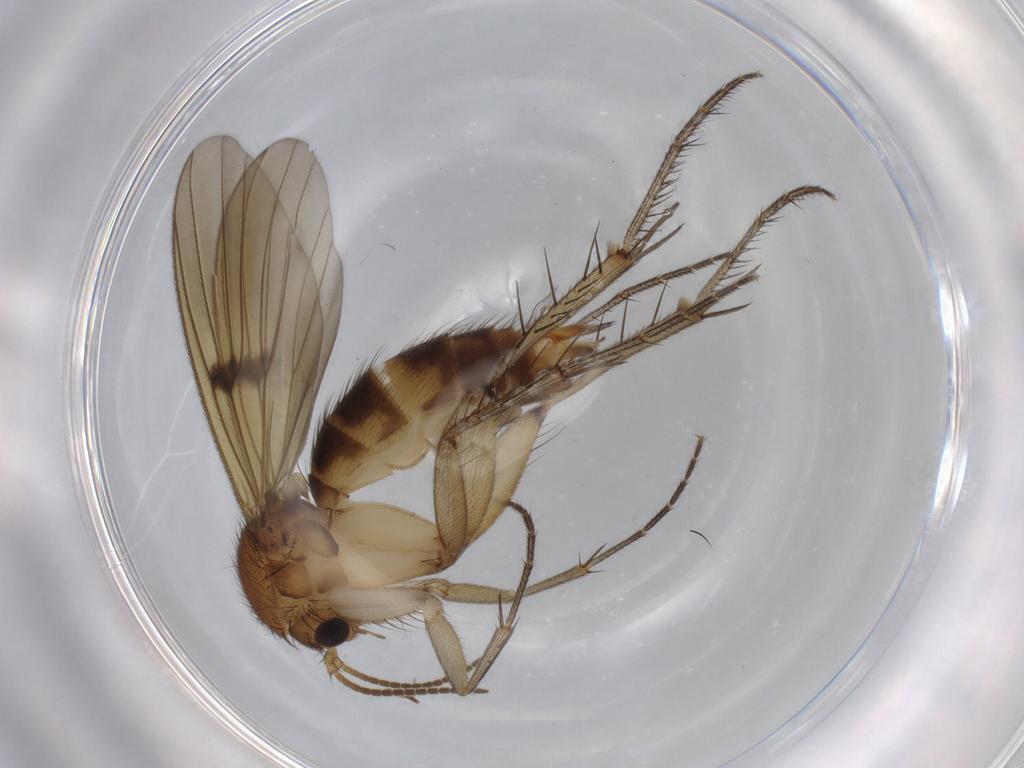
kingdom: Animalia
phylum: Arthropoda
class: Insecta
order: Diptera
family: Mycetophilidae
